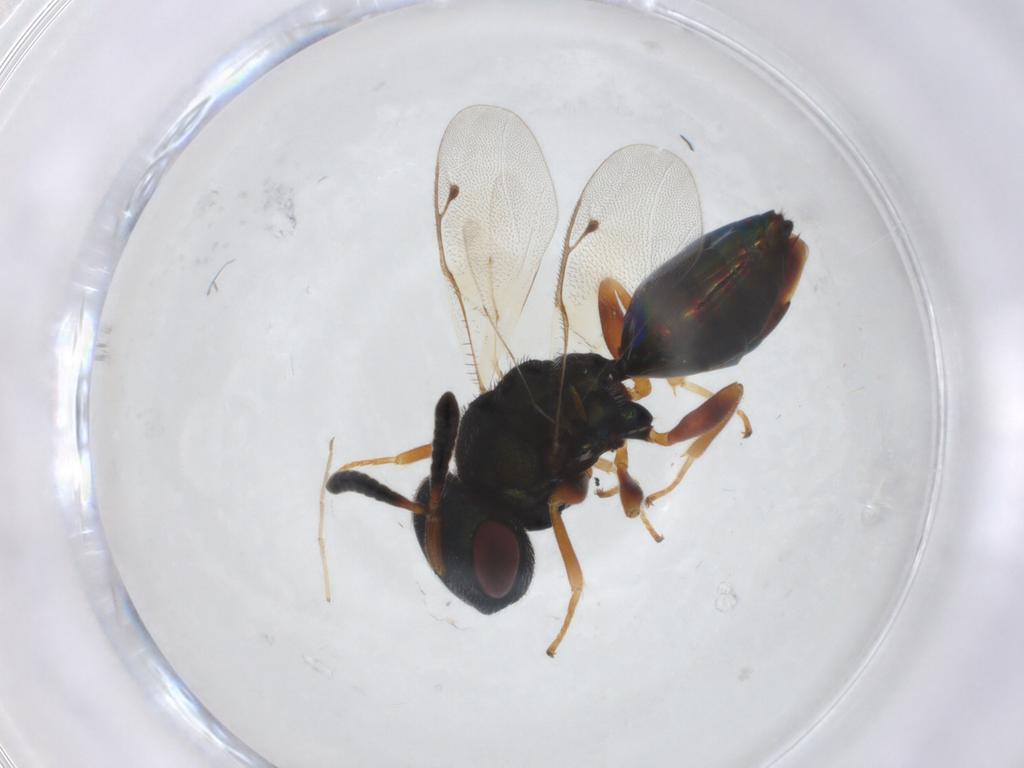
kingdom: Animalia
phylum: Arthropoda
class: Insecta
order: Hymenoptera
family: Agaonidae
